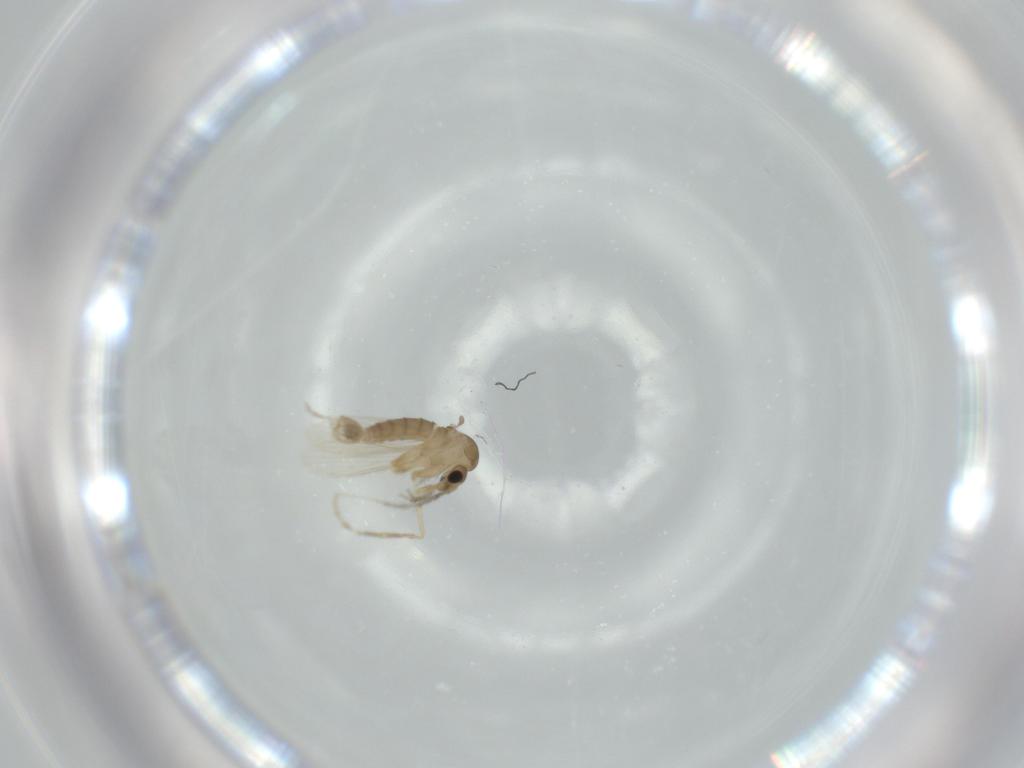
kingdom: Animalia
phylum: Arthropoda
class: Insecta
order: Diptera
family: Psychodidae
